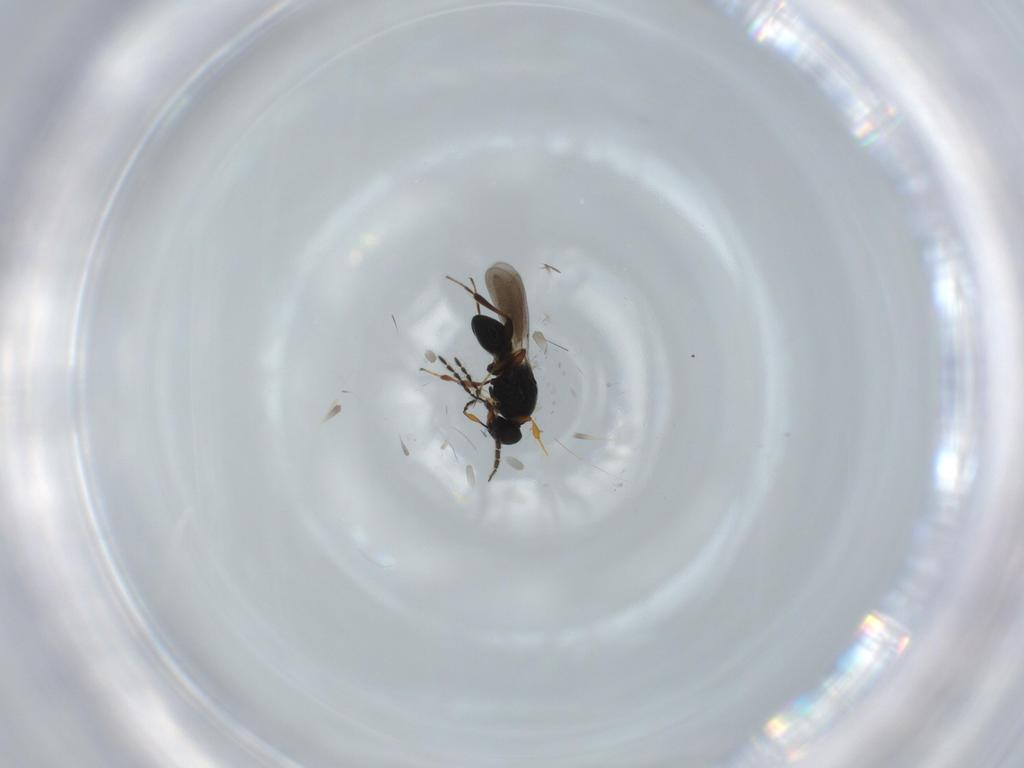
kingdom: Animalia
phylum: Arthropoda
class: Insecta
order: Hymenoptera
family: Platygastridae
